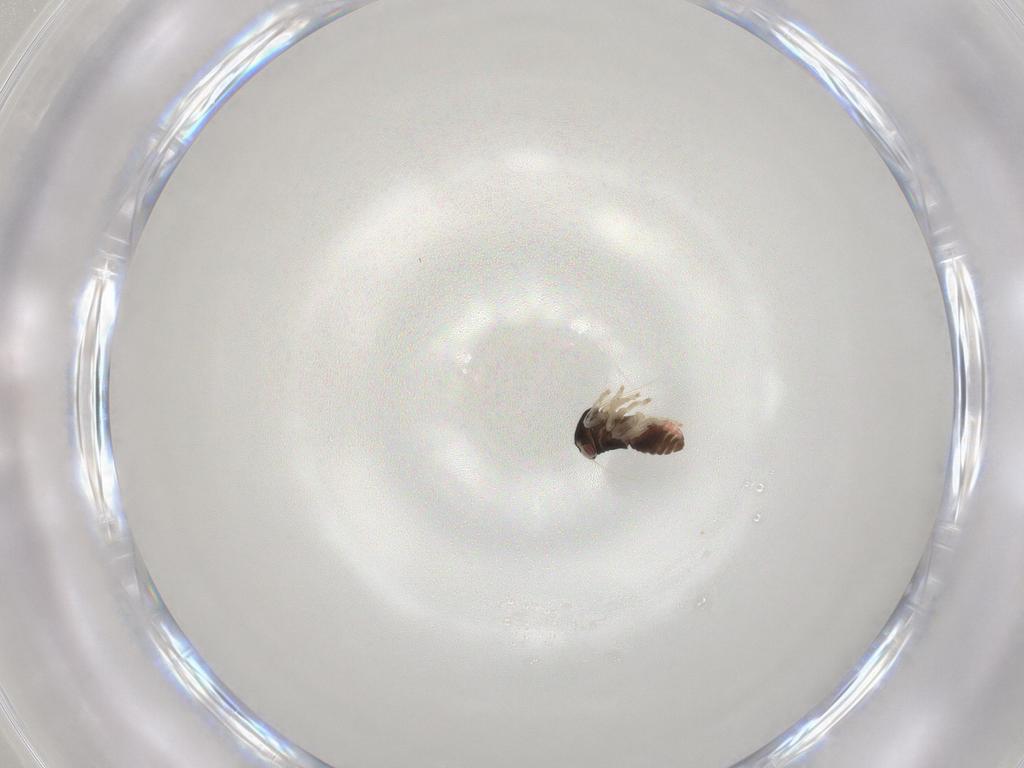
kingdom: Animalia
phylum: Arthropoda
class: Insecta
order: Hemiptera
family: Cicadellidae
